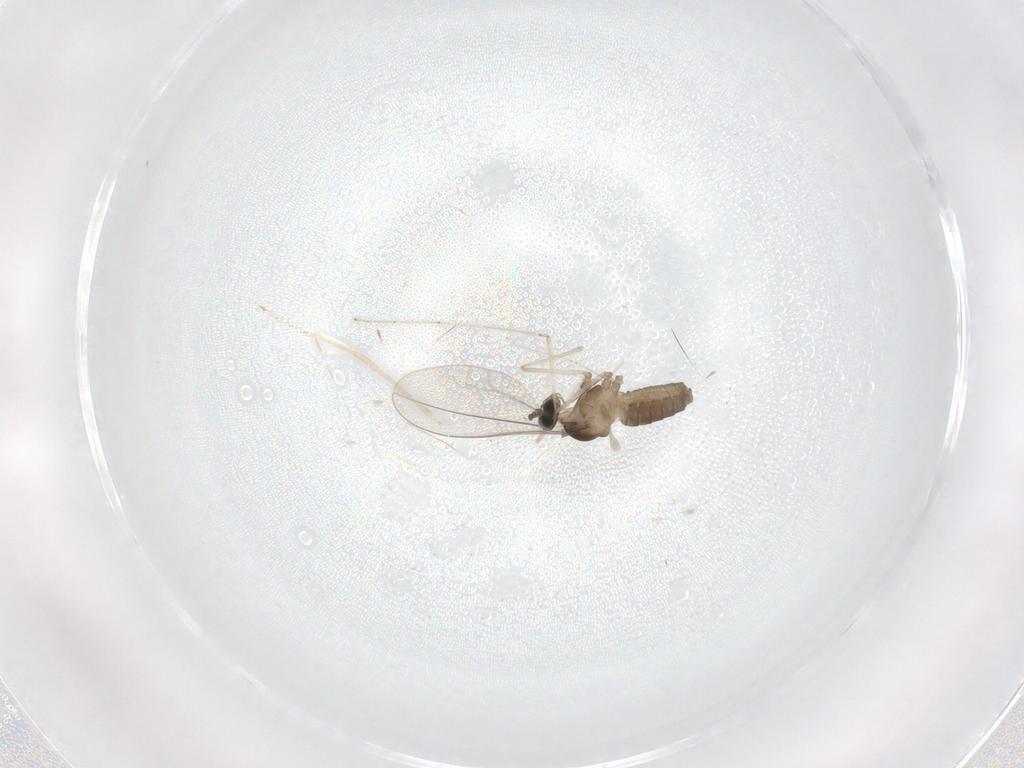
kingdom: Animalia
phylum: Arthropoda
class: Insecta
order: Diptera
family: Cecidomyiidae
